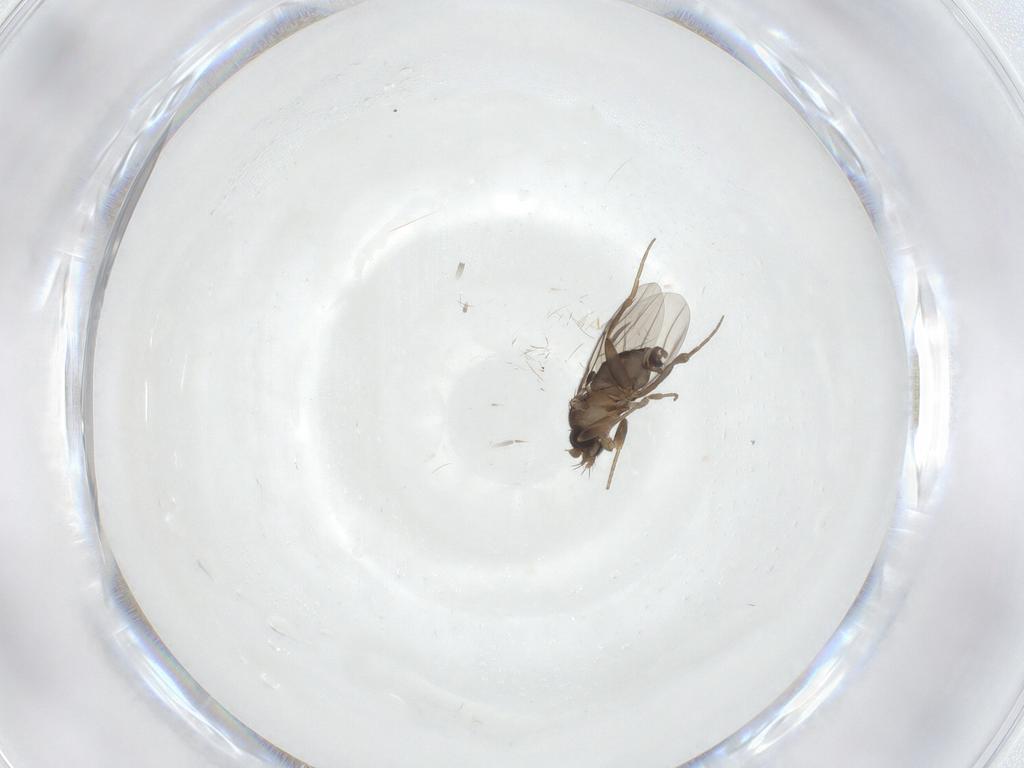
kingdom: Animalia
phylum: Arthropoda
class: Insecta
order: Diptera
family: Phoridae
